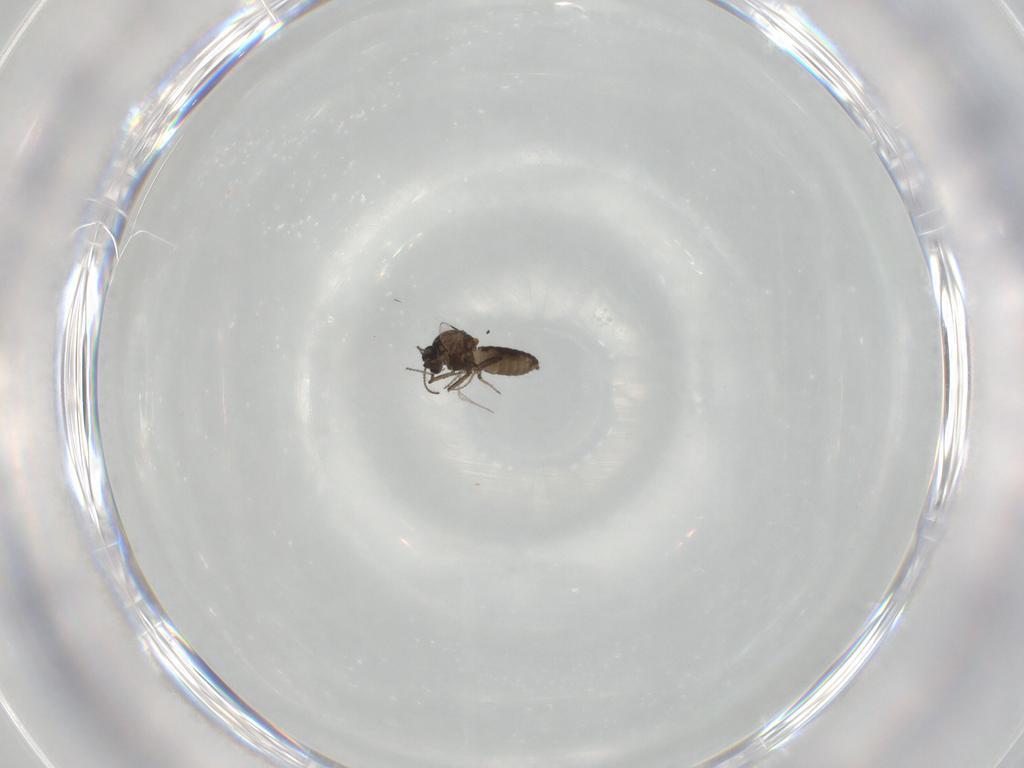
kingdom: Animalia
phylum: Arthropoda
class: Insecta
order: Diptera
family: Ceratopogonidae
